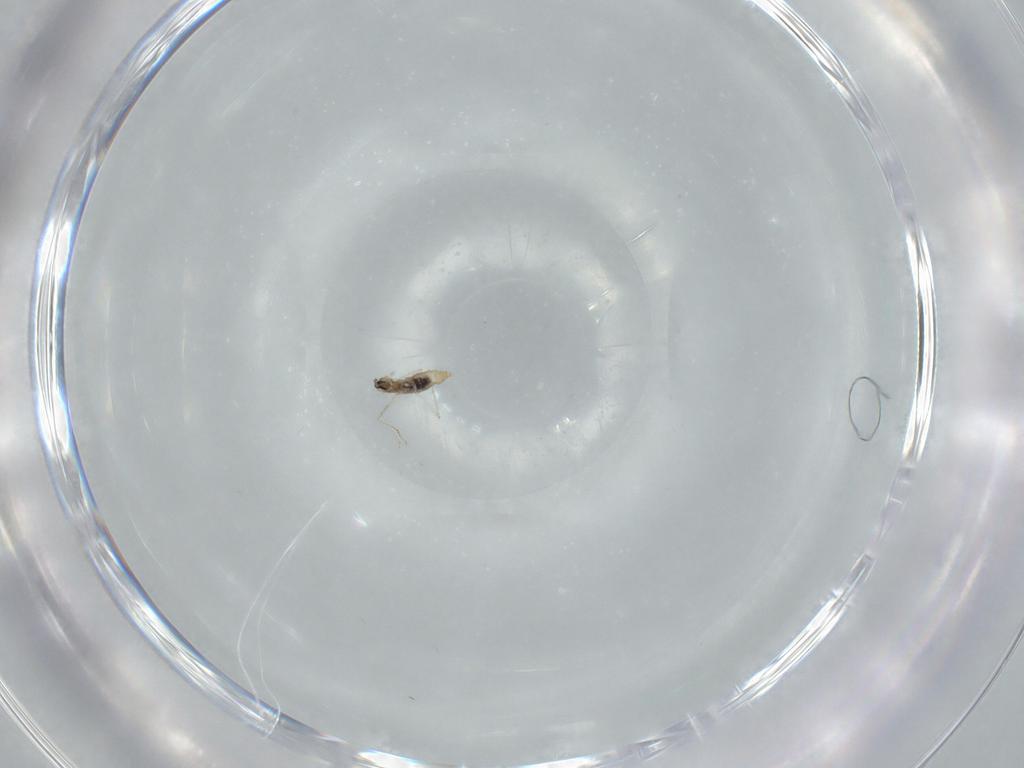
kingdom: Animalia
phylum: Arthropoda
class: Insecta
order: Diptera
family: Cecidomyiidae
